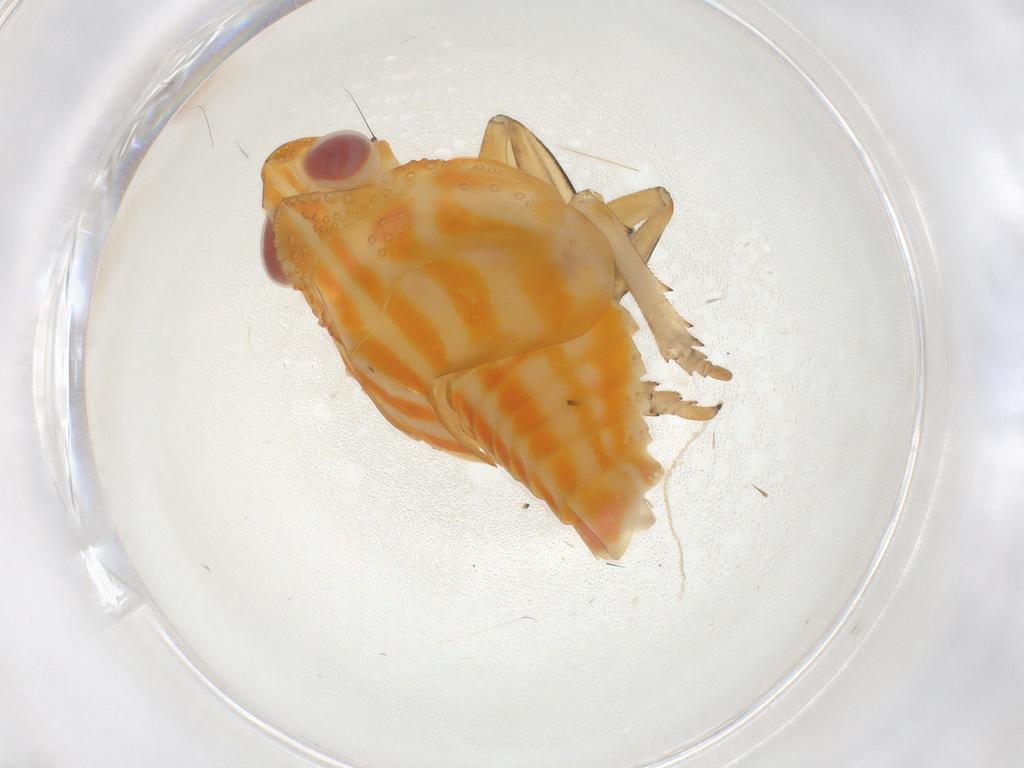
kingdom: Animalia
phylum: Arthropoda
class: Insecta
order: Hemiptera
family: Issidae
